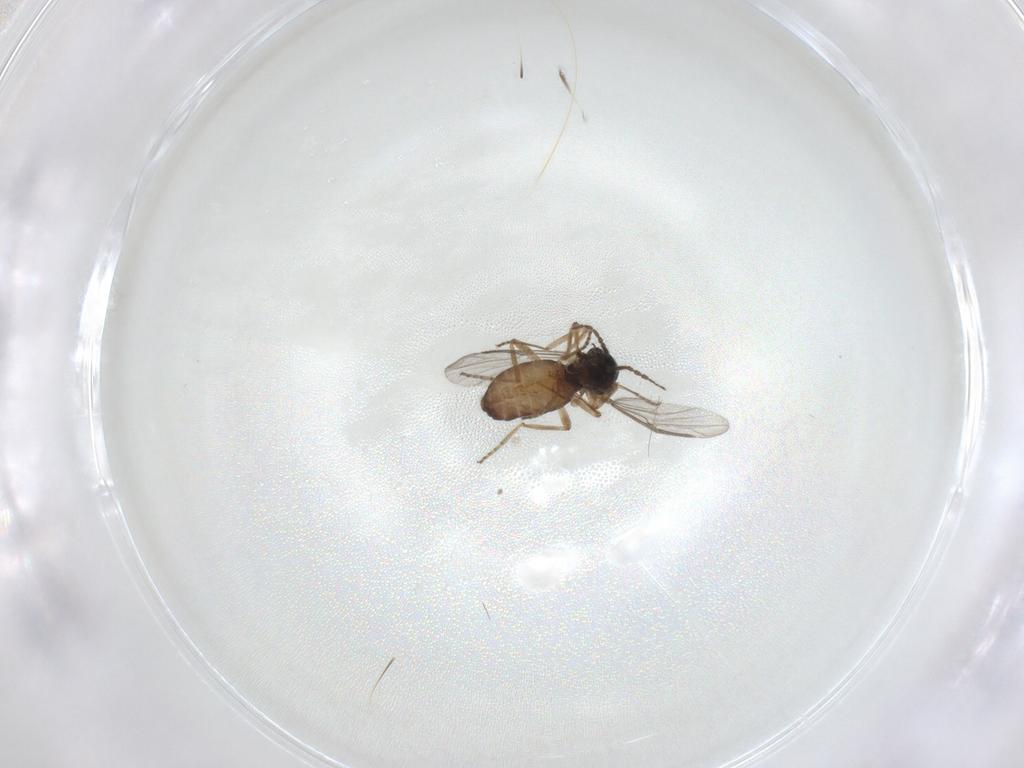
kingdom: Animalia
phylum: Arthropoda
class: Insecta
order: Diptera
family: Ceratopogonidae
